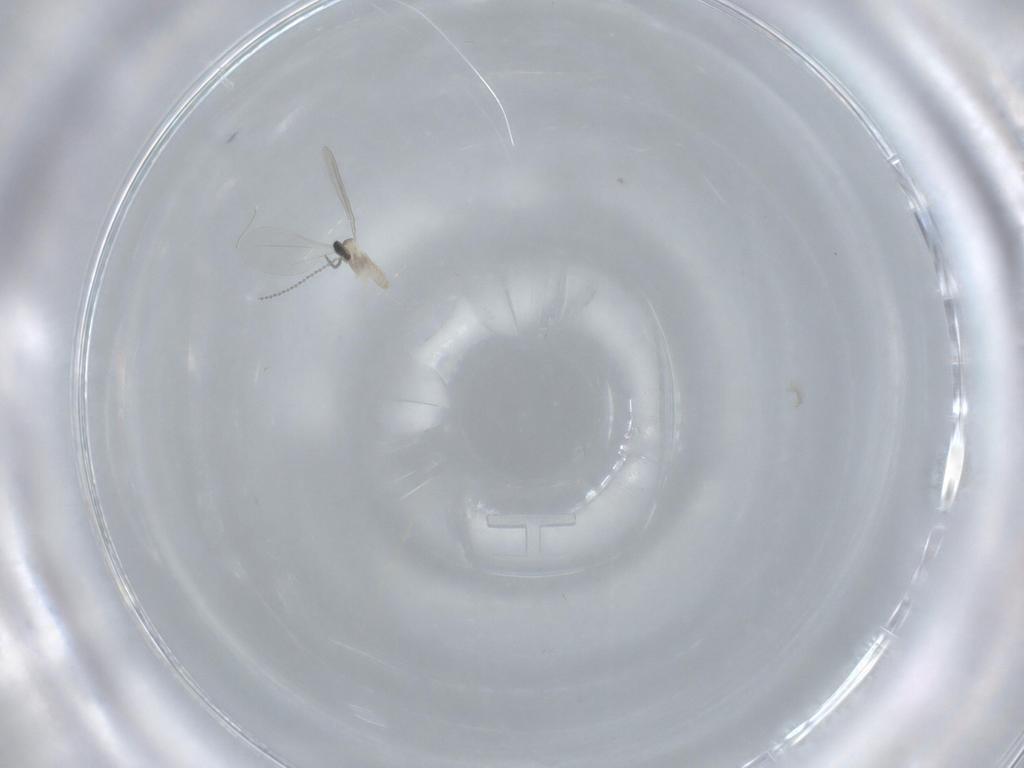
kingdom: Animalia
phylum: Arthropoda
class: Insecta
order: Diptera
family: Cecidomyiidae
